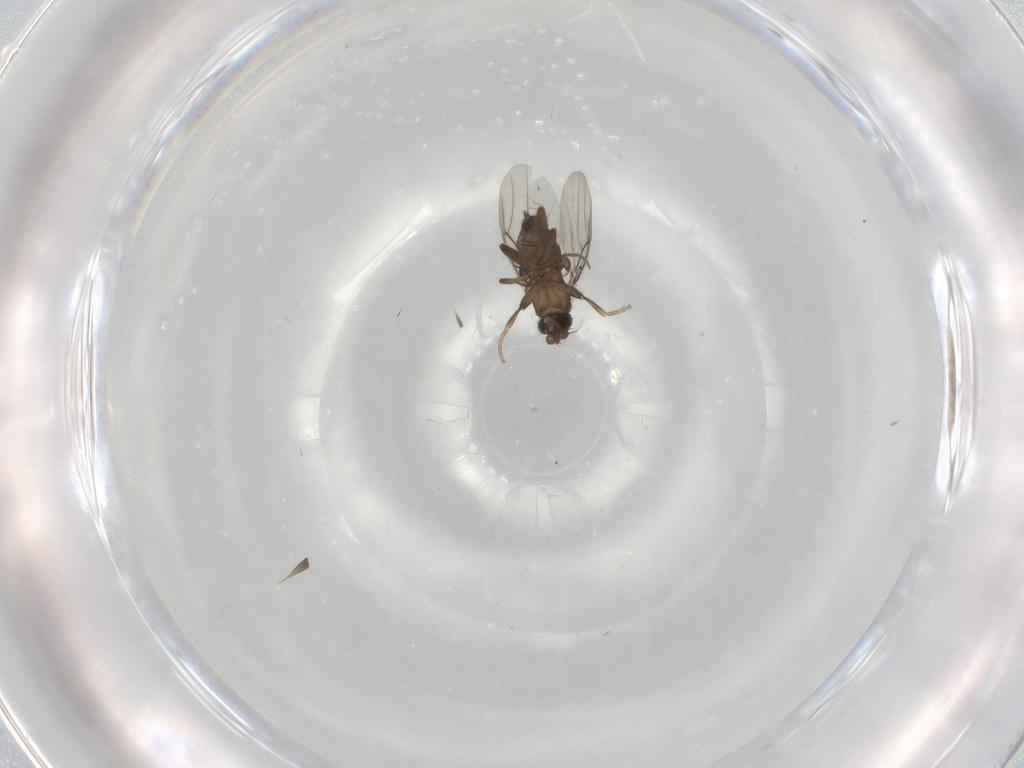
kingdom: Animalia
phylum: Arthropoda
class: Insecta
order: Diptera
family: Phoridae
